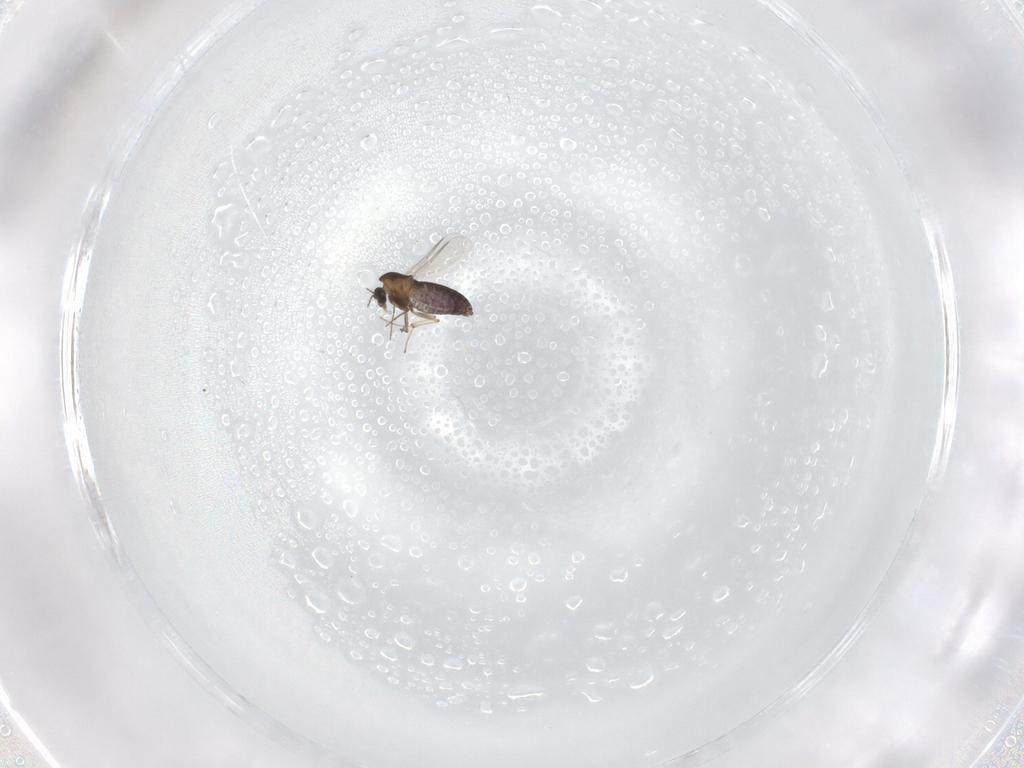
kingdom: Animalia
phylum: Arthropoda
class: Insecta
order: Diptera
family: Chironomidae
